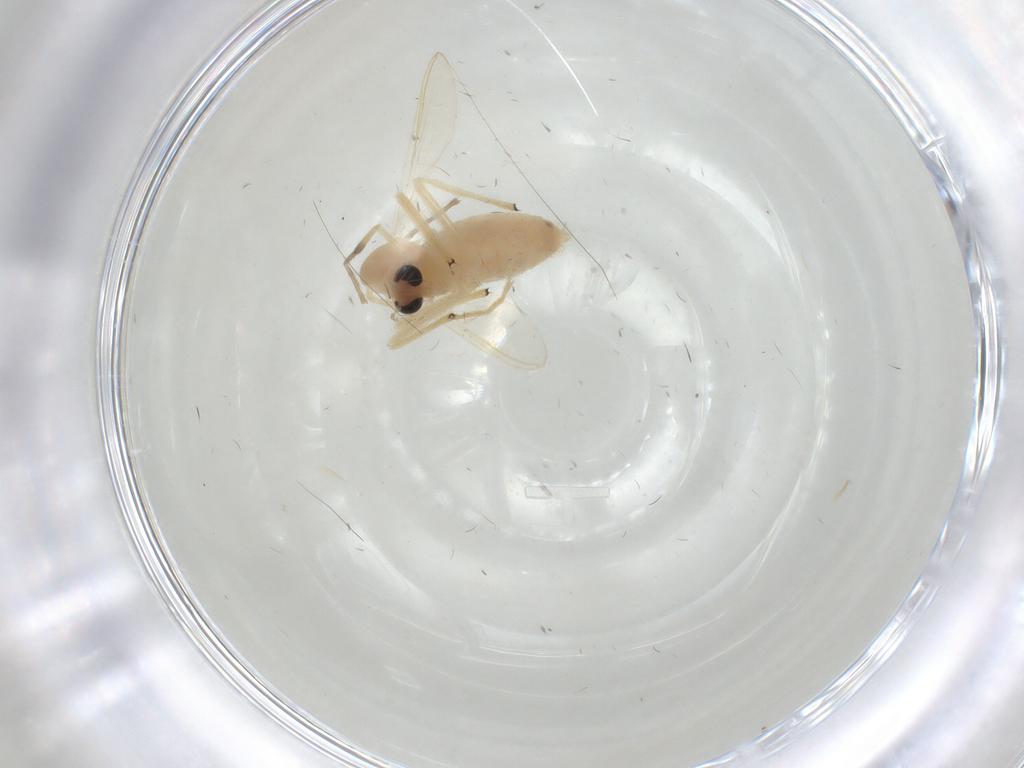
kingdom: Animalia
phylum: Arthropoda
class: Insecta
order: Diptera
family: Chironomidae
